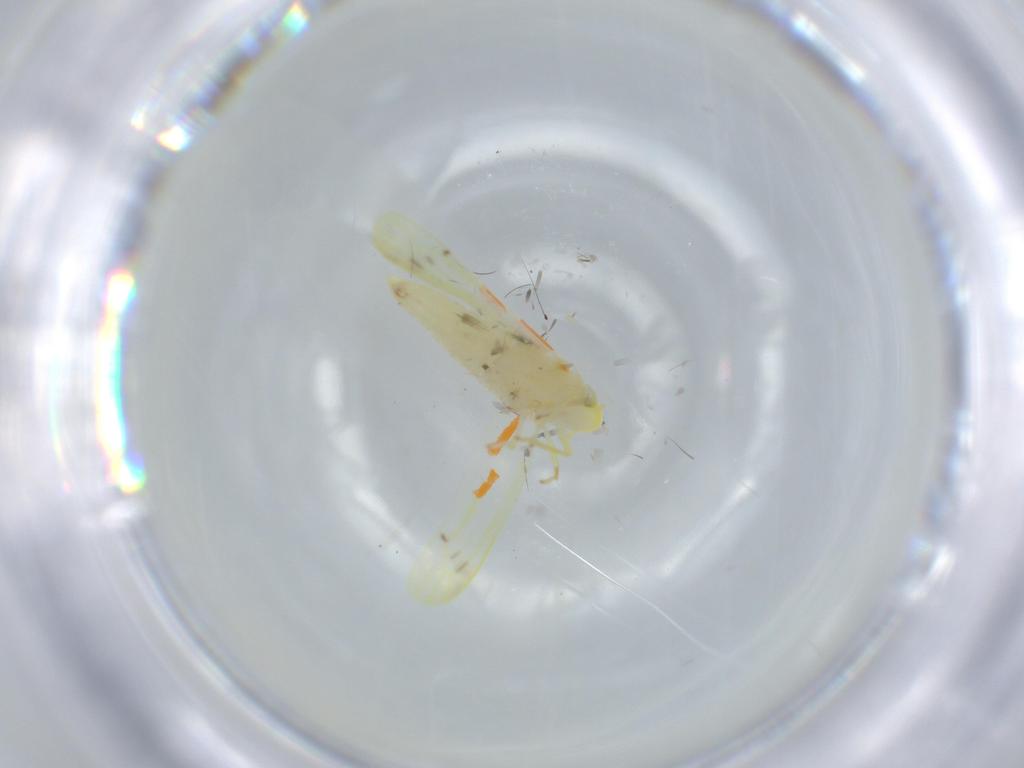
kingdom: Animalia
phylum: Arthropoda
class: Insecta
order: Hemiptera
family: Cicadellidae
